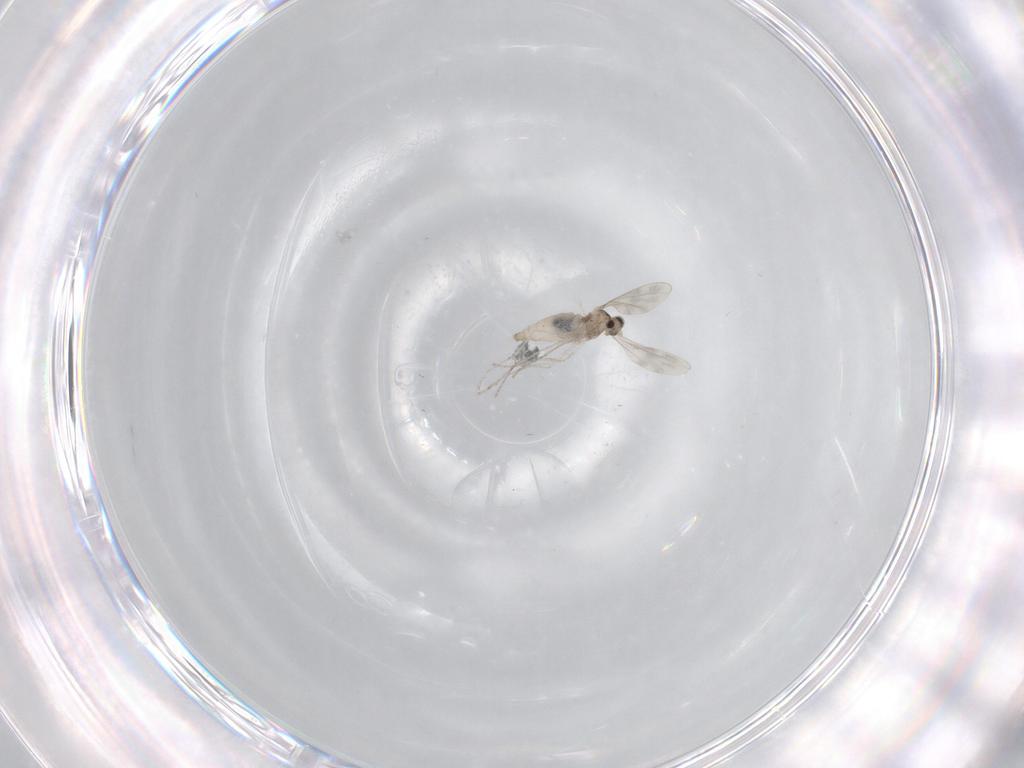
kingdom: Animalia
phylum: Arthropoda
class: Insecta
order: Diptera
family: Cecidomyiidae
